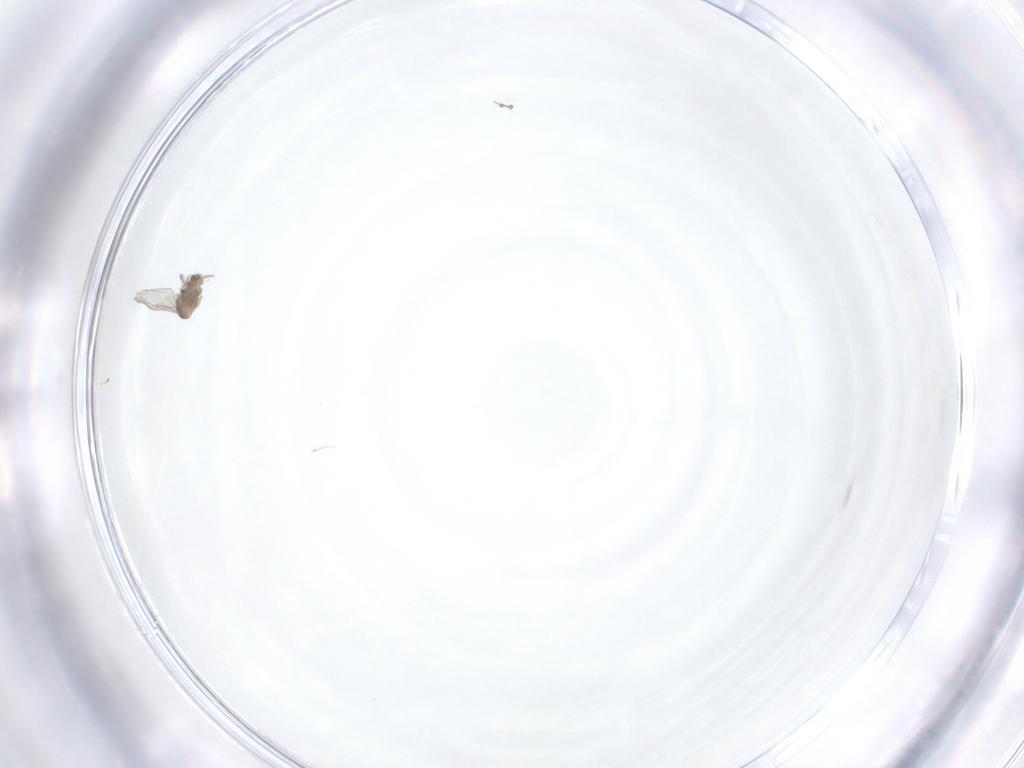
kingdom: Animalia
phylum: Arthropoda
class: Insecta
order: Diptera
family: Cecidomyiidae
